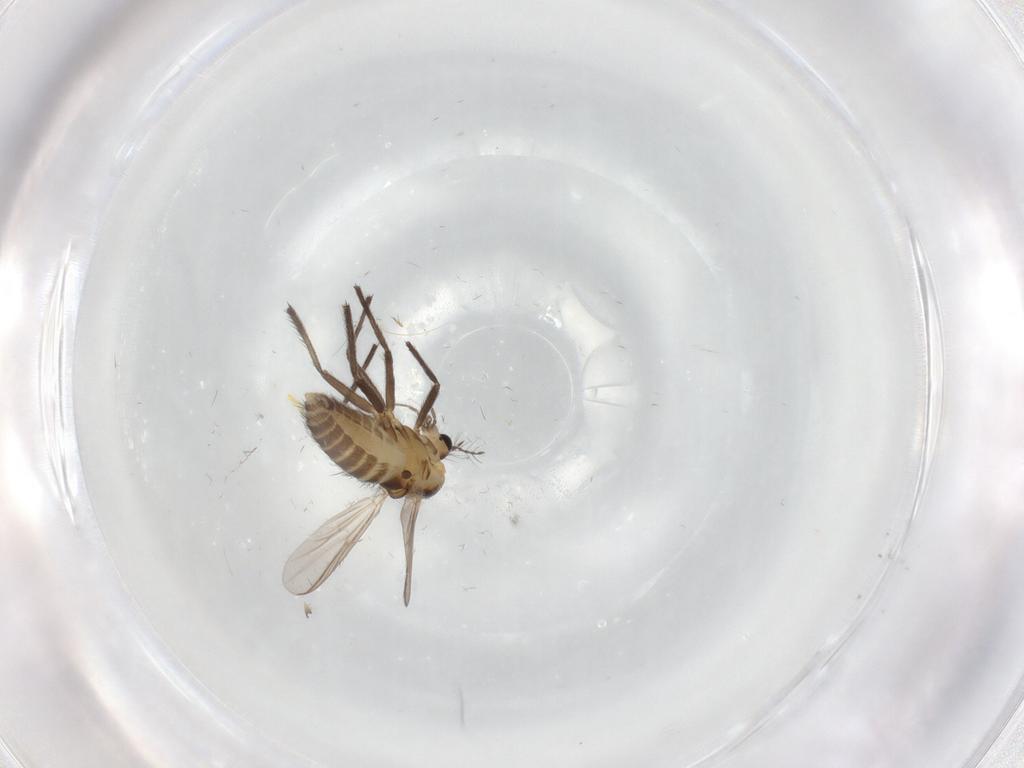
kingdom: Animalia
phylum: Arthropoda
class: Insecta
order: Diptera
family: Chironomidae
